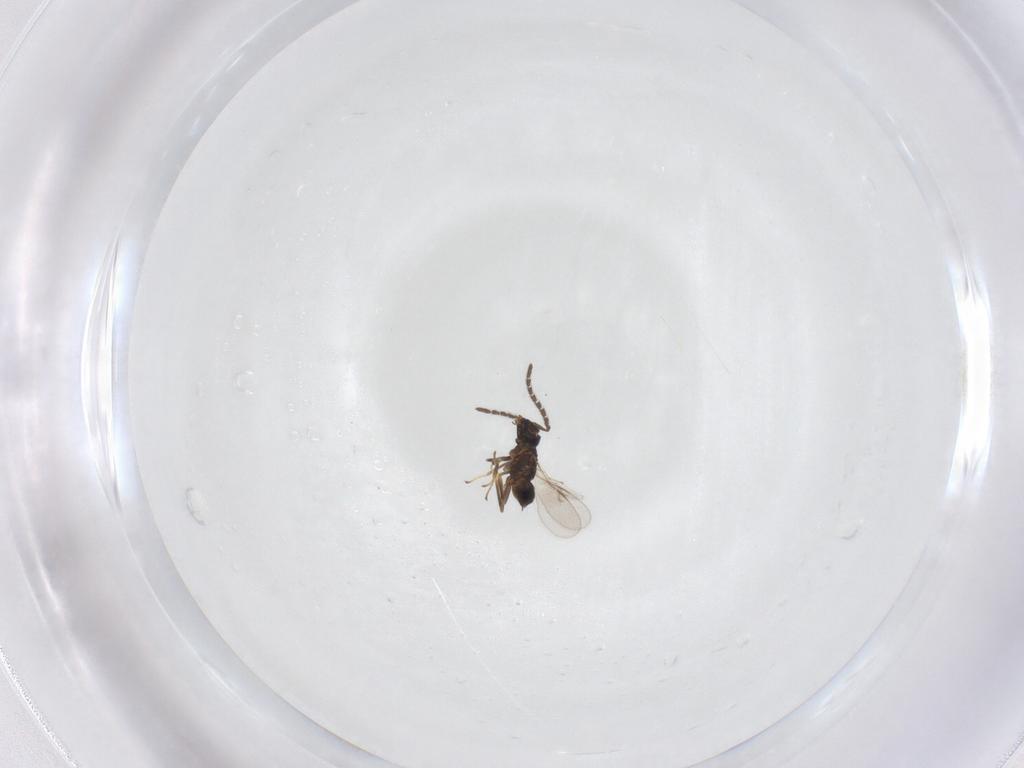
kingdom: Animalia
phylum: Arthropoda
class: Insecta
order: Hymenoptera
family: Encyrtidae
